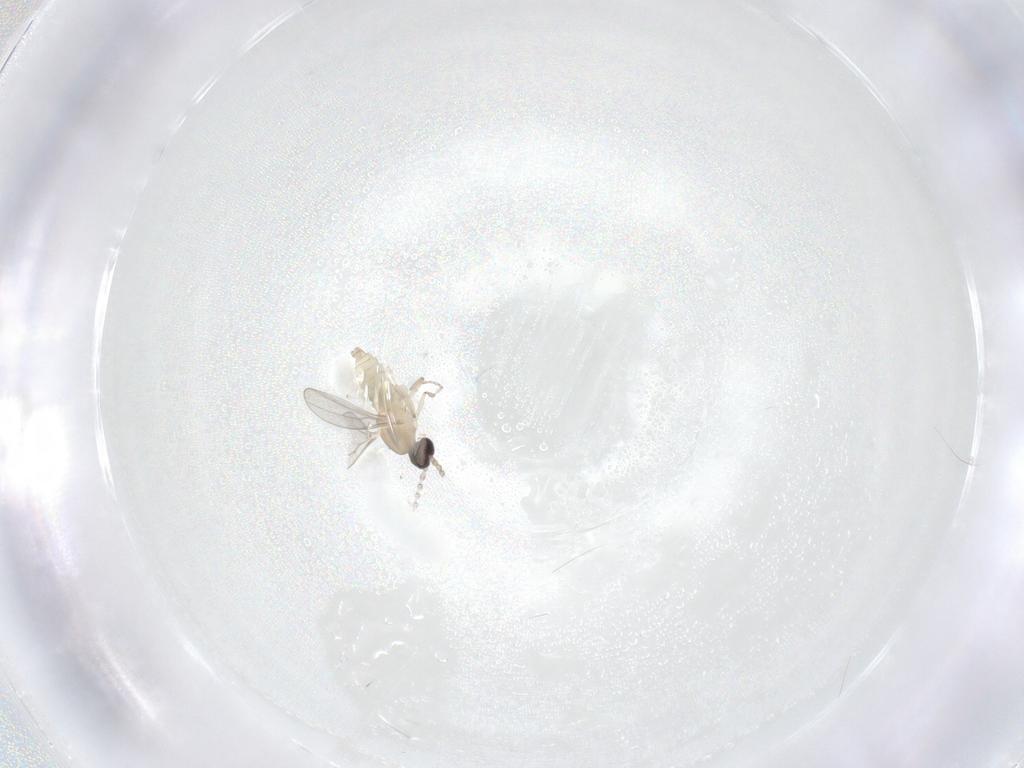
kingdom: Animalia
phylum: Arthropoda
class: Insecta
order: Diptera
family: Cecidomyiidae
